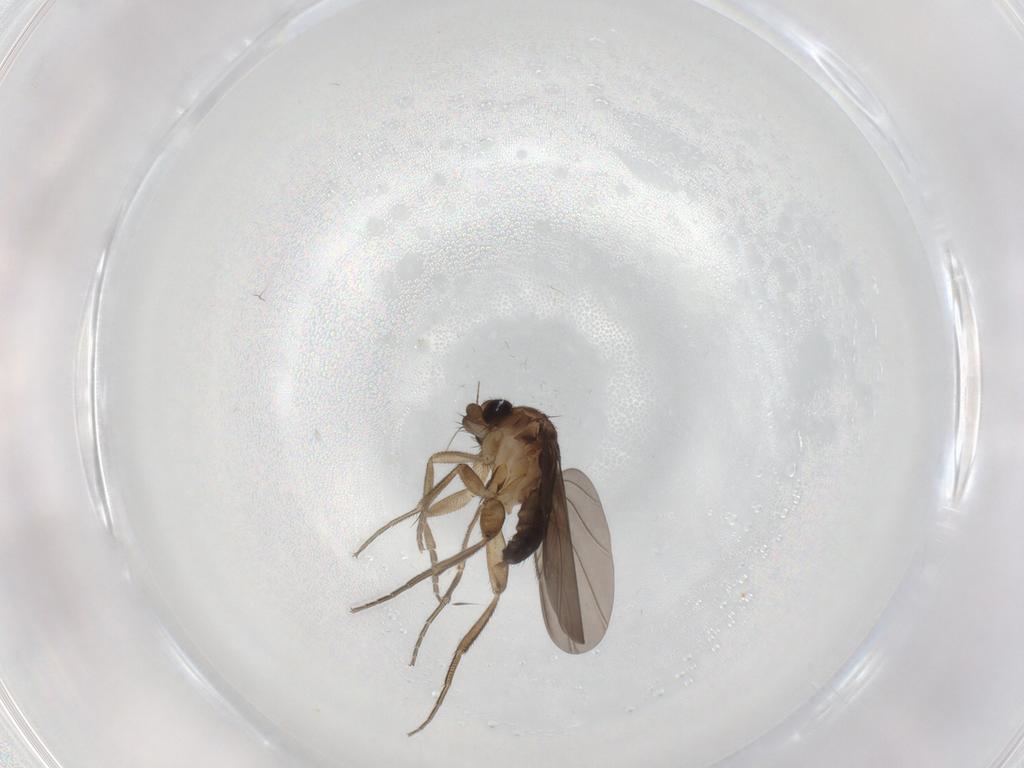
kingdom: Animalia
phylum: Arthropoda
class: Insecta
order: Diptera
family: Phoridae
